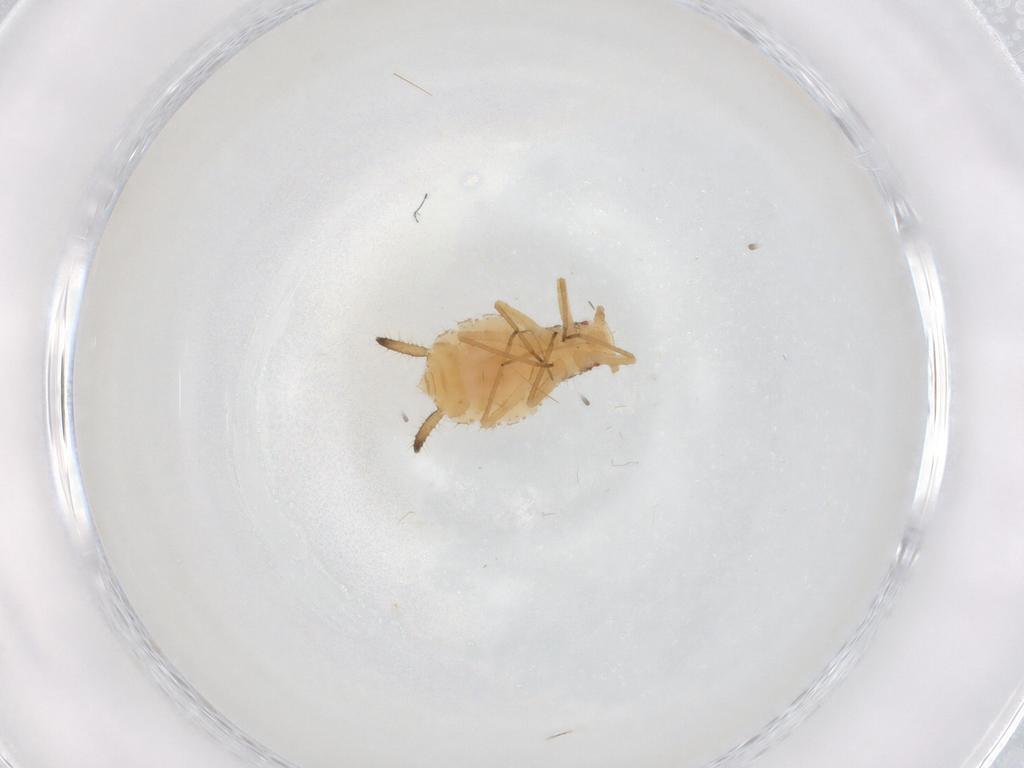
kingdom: Animalia
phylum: Arthropoda
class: Insecta
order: Hemiptera
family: Aphididae
